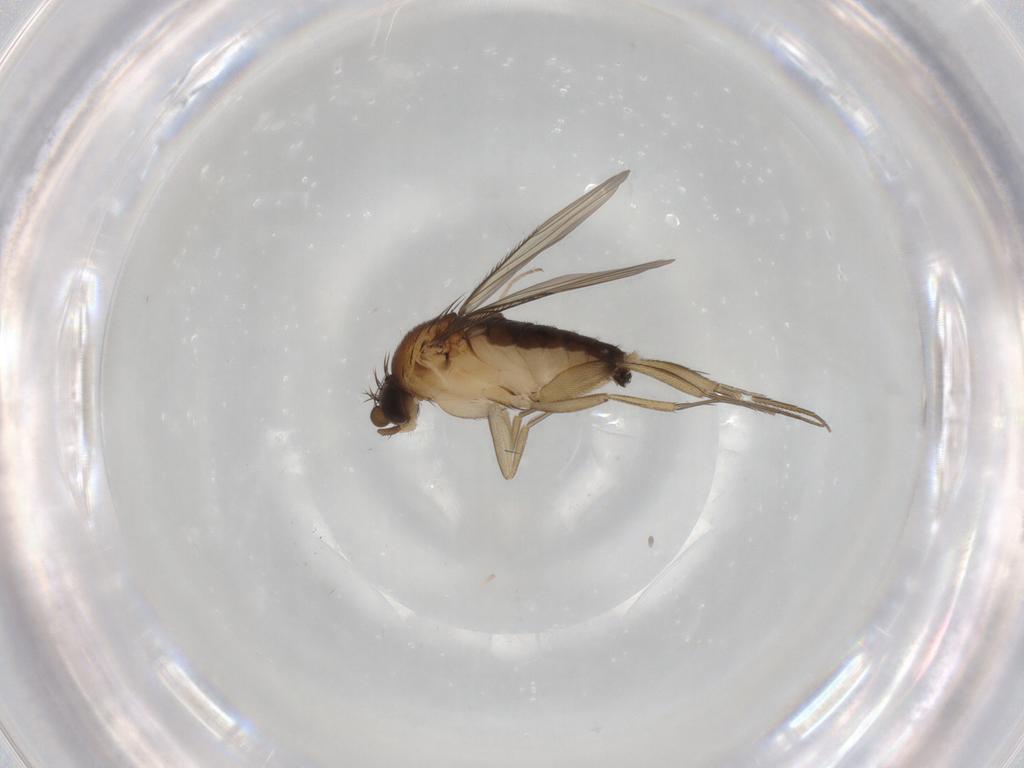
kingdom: Animalia
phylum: Arthropoda
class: Insecta
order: Diptera
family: Phoridae
